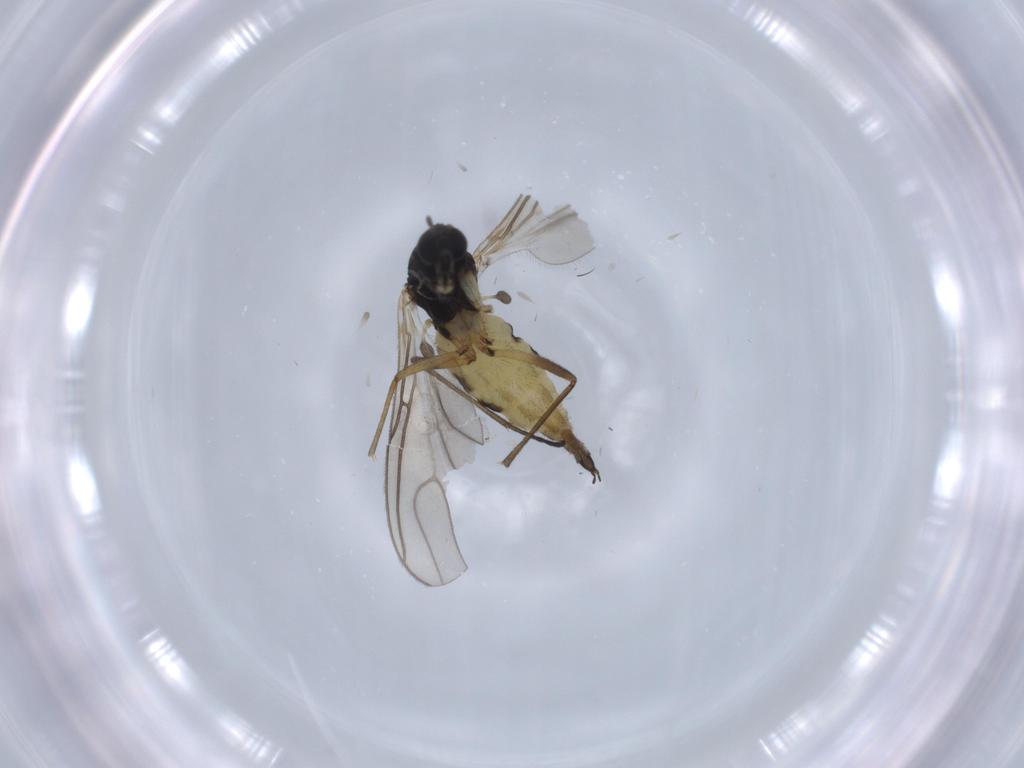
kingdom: Animalia
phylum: Arthropoda
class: Insecta
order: Diptera
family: Sciaridae
